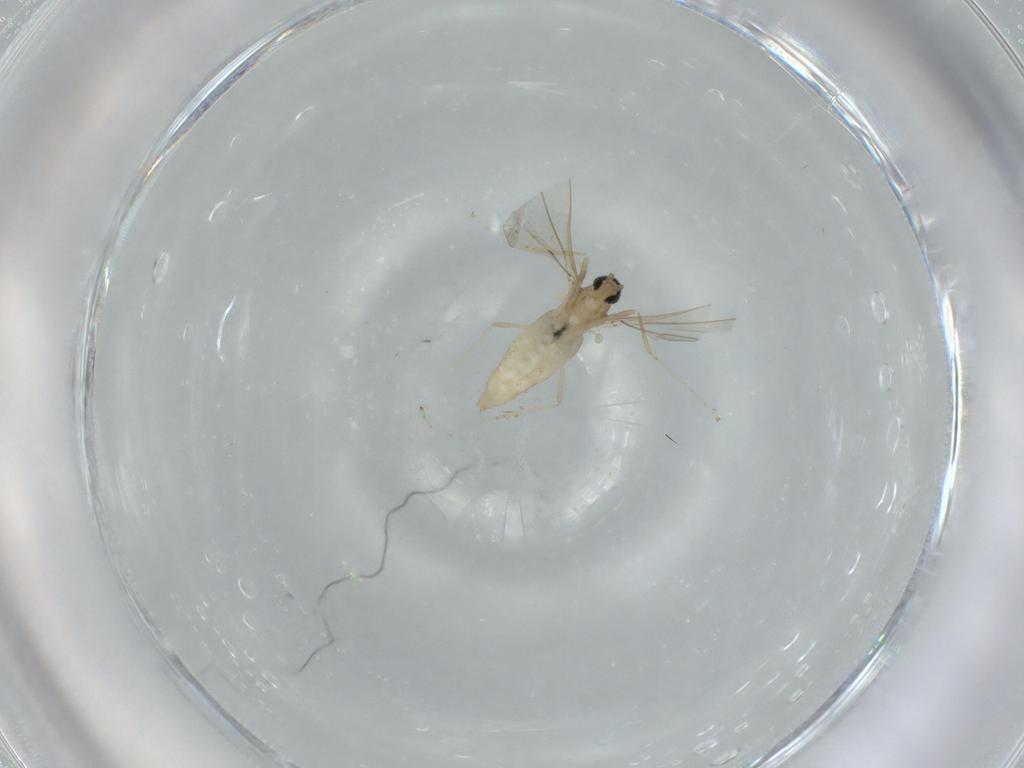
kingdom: Animalia
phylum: Arthropoda
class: Insecta
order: Diptera
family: Cecidomyiidae
